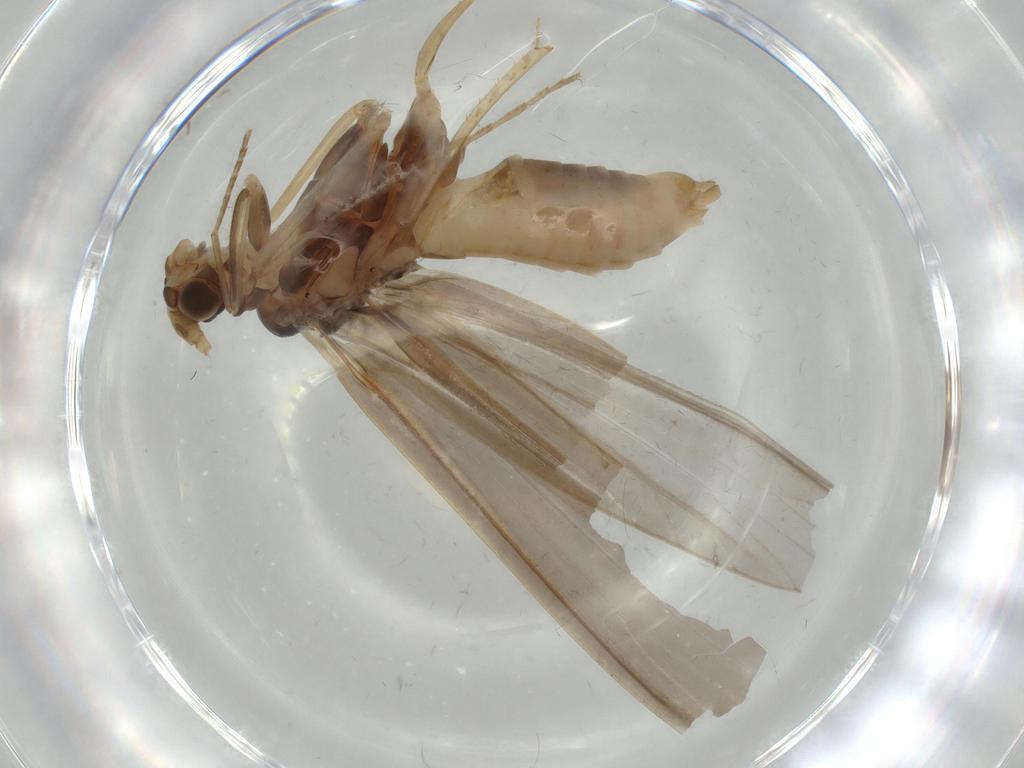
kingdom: Animalia
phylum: Arthropoda
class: Insecta
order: Trichoptera
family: Leptoceridae
